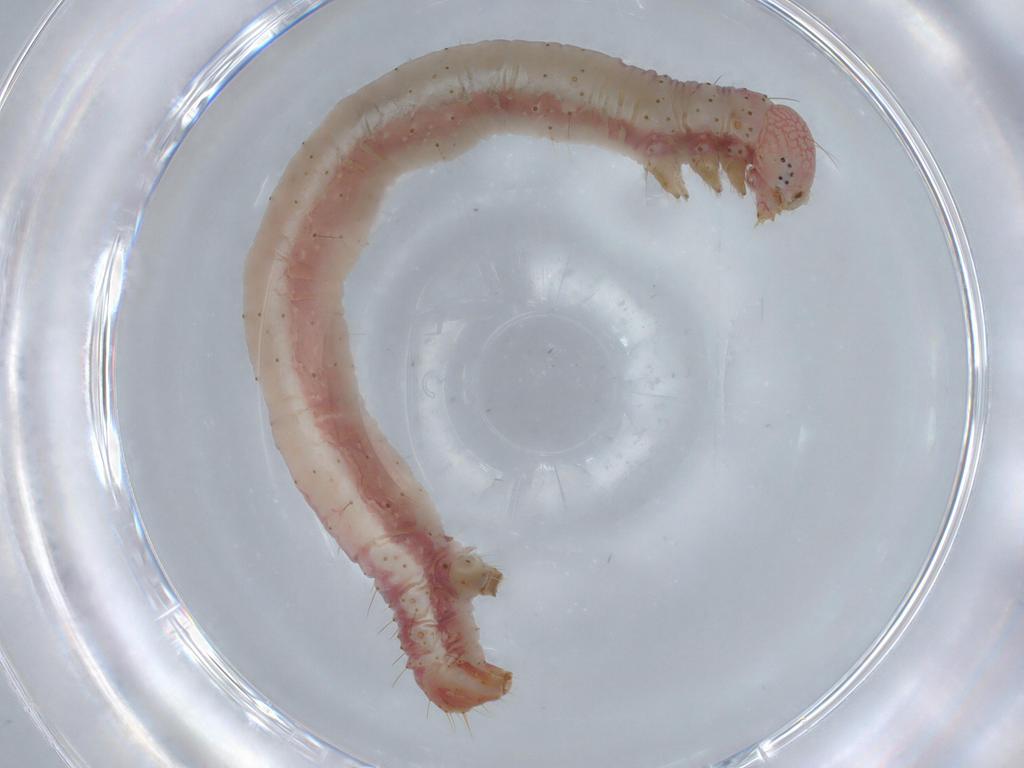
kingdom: Animalia
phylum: Arthropoda
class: Insecta
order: Lepidoptera
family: Geometridae
